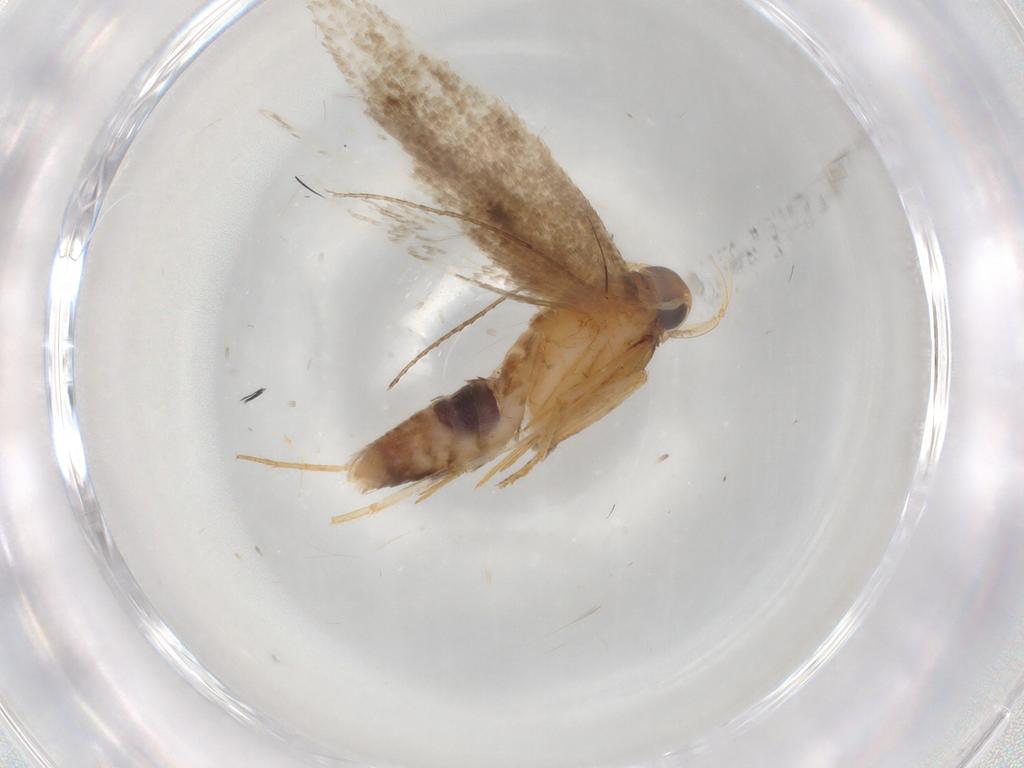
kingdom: Animalia
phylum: Arthropoda
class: Insecta
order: Lepidoptera
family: Gelechiidae
